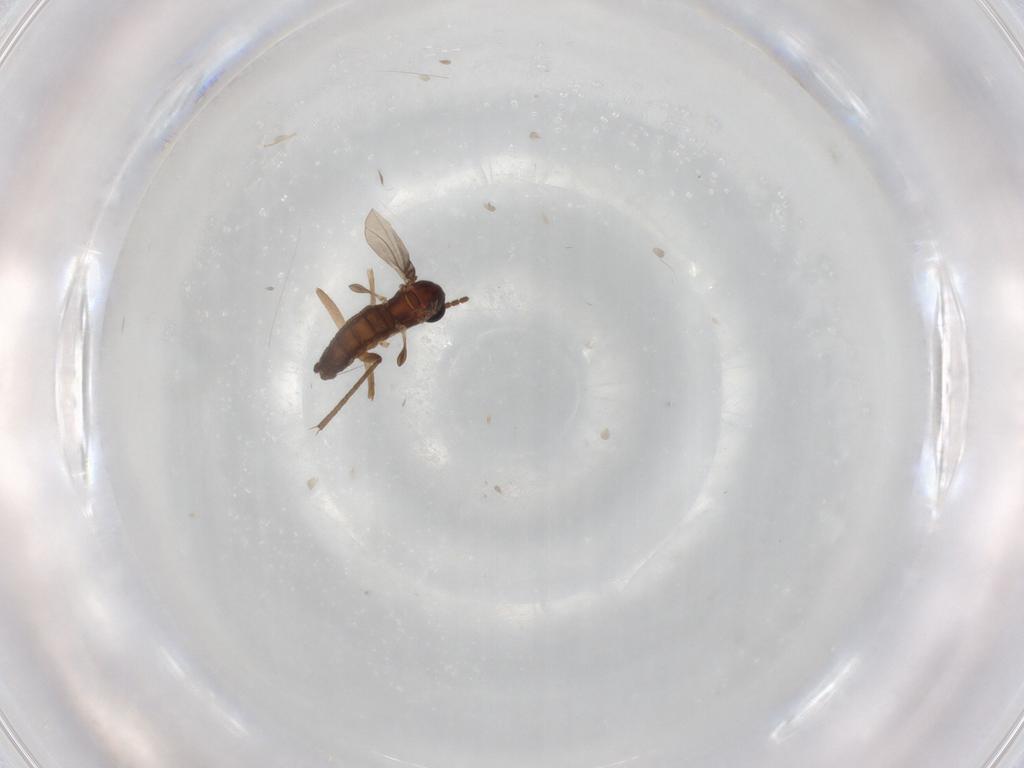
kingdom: Animalia
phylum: Arthropoda
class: Insecta
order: Diptera
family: Sciaridae
